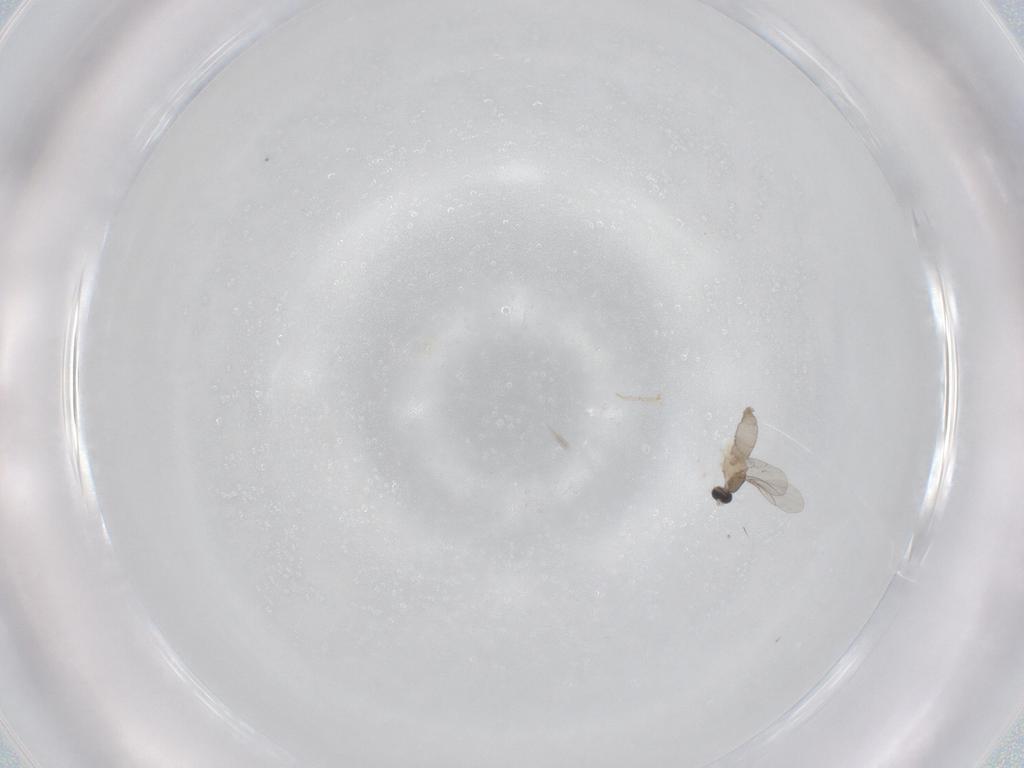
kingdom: Animalia
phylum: Arthropoda
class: Insecta
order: Diptera
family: Cecidomyiidae
